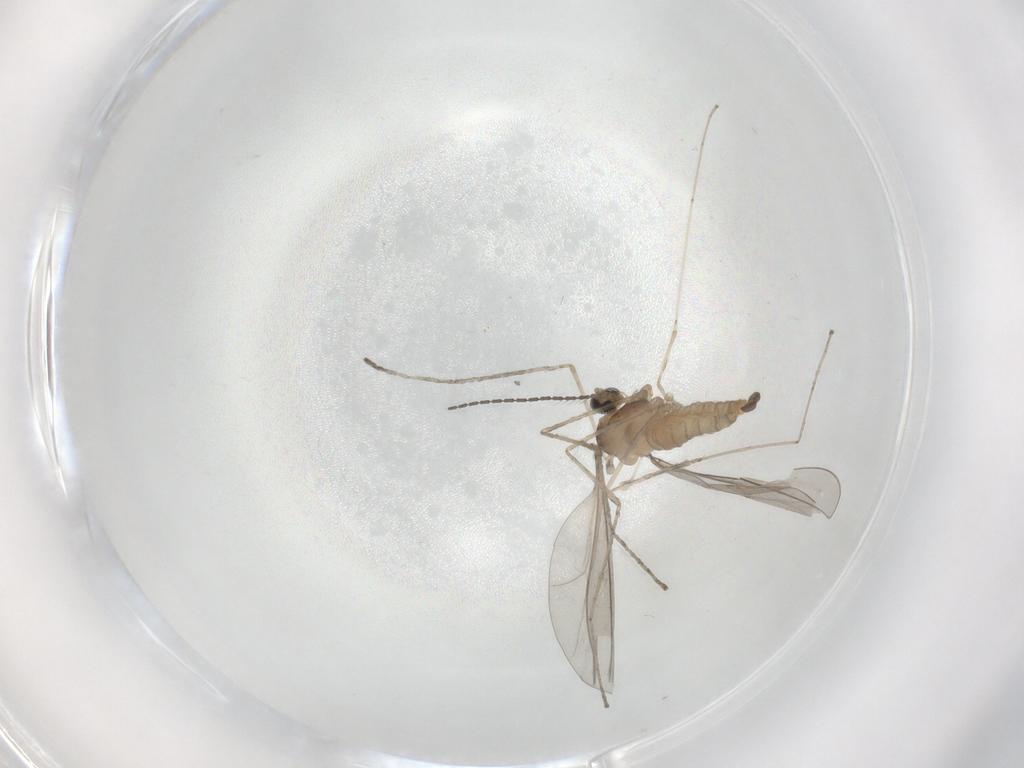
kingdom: Animalia
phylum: Arthropoda
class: Insecta
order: Diptera
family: Cecidomyiidae
